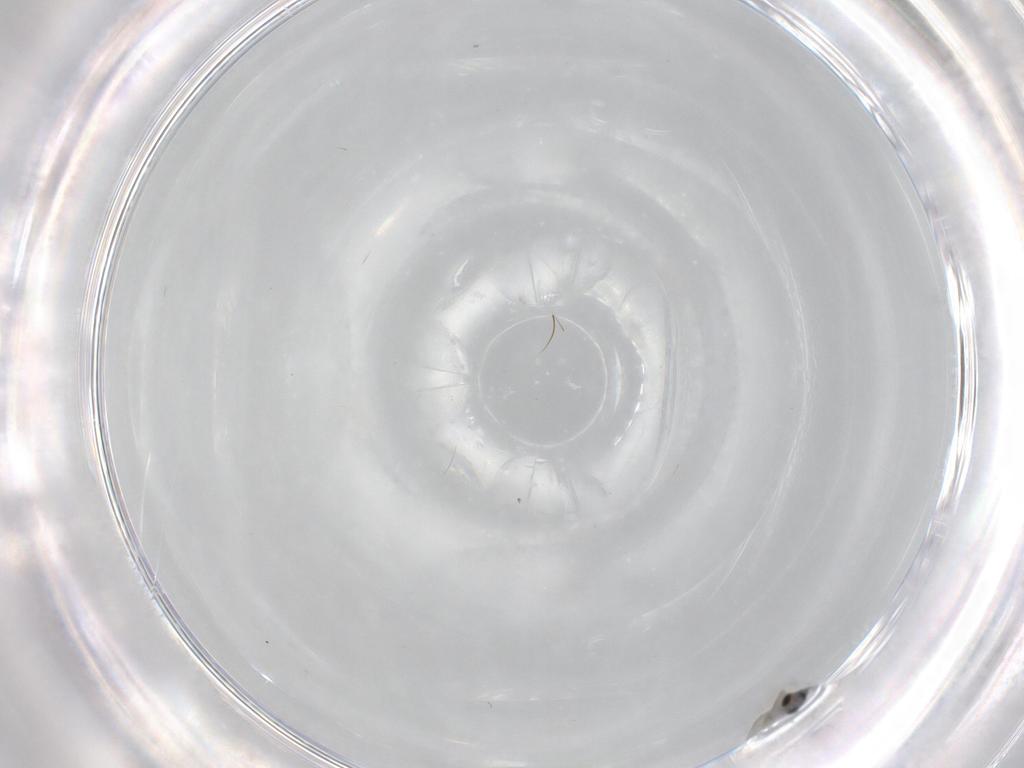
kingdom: Animalia
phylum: Arthropoda
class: Insecta
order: Diptera
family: Cecidomyiidae
